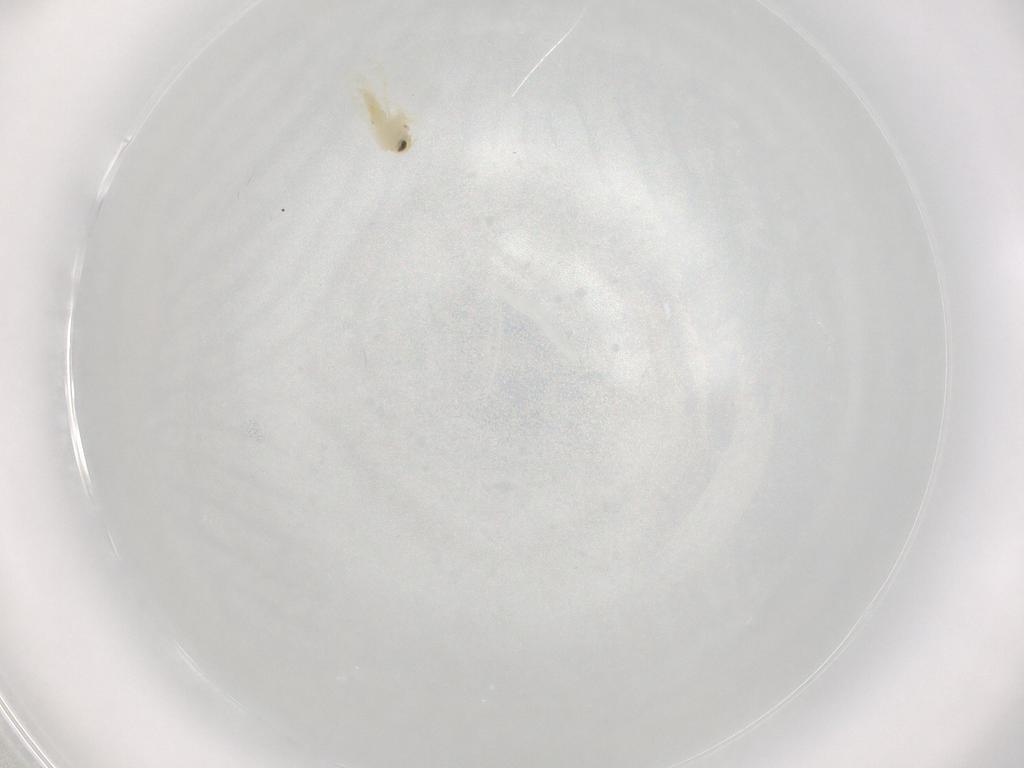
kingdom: Animalia
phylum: Arthropoda
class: Insecta
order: Hemiptera
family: Aleyrodidae
